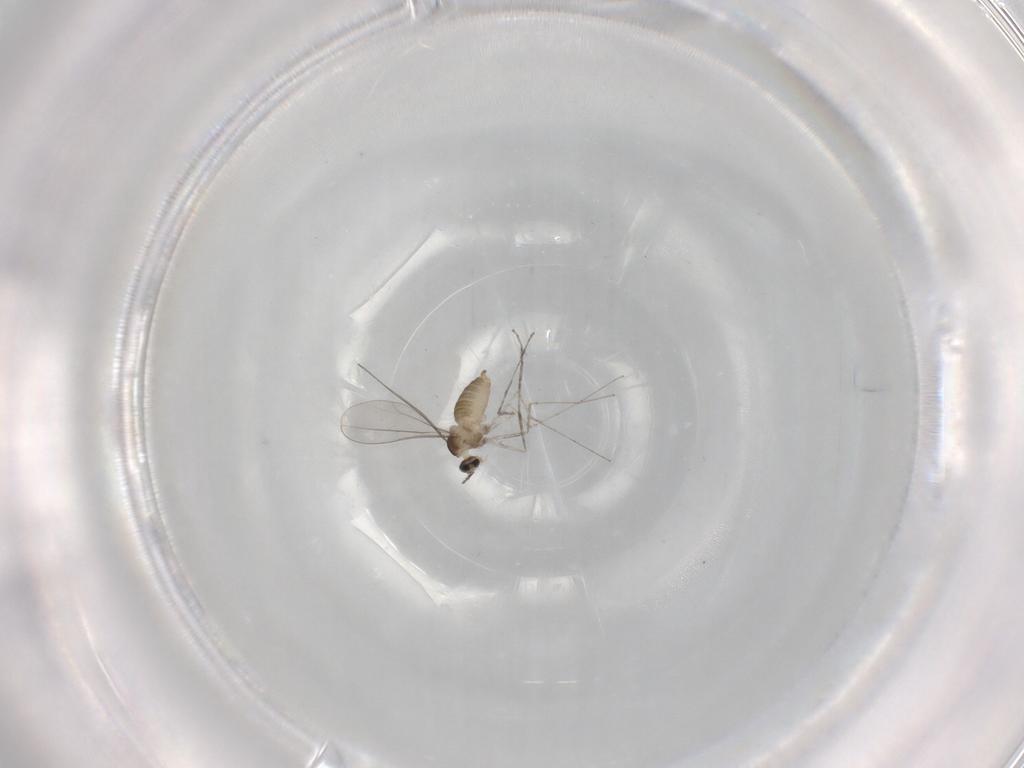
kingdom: Animalia
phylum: Arthropoda
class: Insecta
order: Diptera
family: Cecidomyiidae
